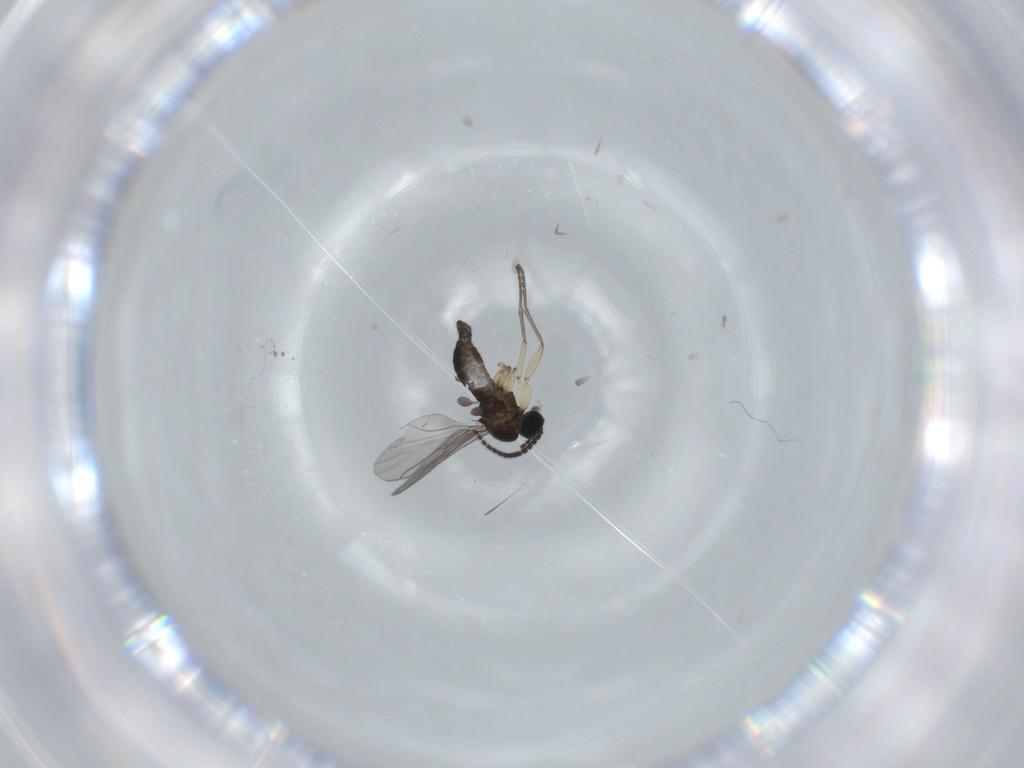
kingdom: Animalia
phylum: Arthropoda
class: Insecta
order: Diptera
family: Sciaridae
